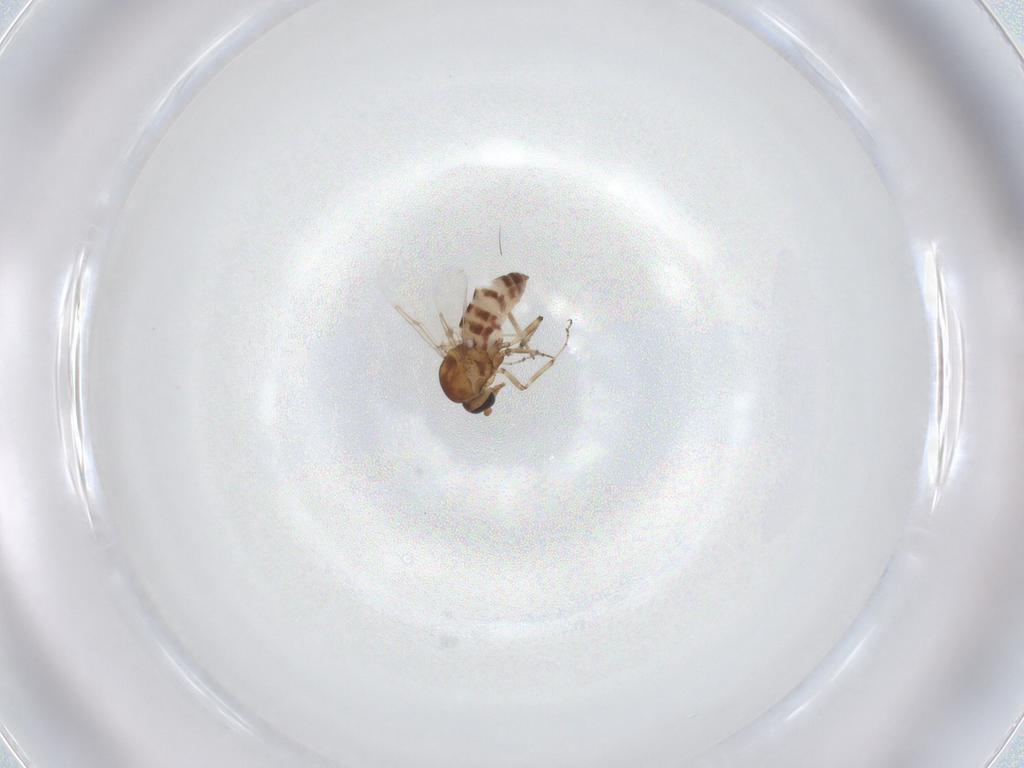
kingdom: Animalia
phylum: Arthropoda
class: Insecta
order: Diptera
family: Ceratopogonidae
